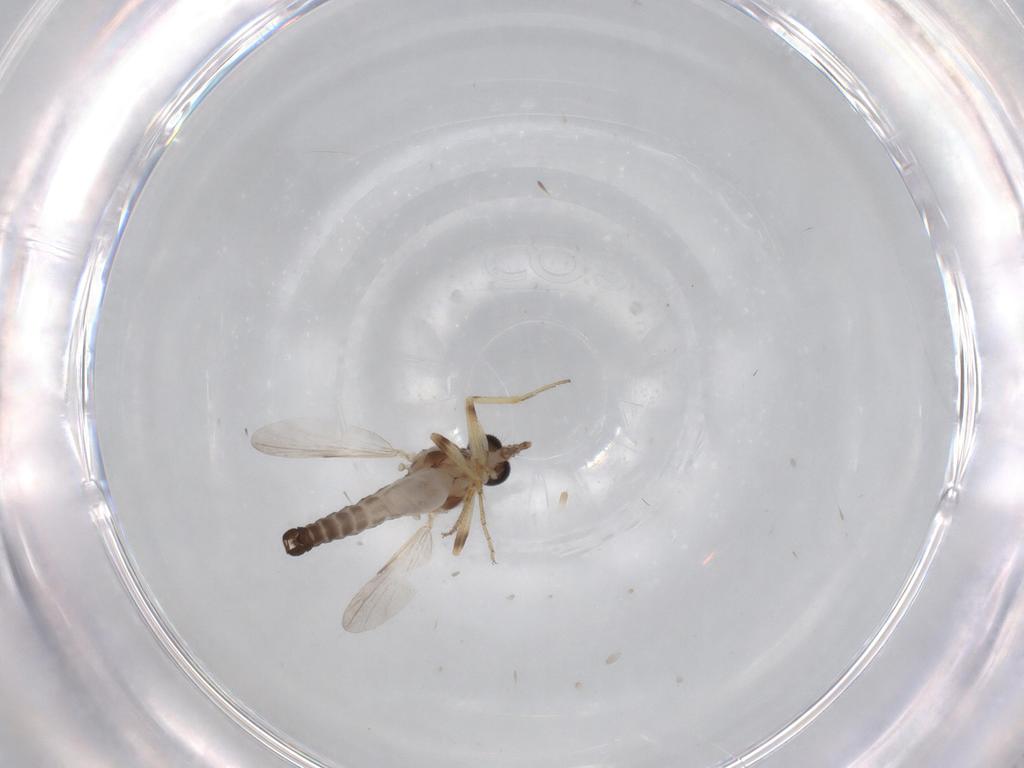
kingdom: Animalia
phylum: Arthropoda
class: Insecta
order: Diptera
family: Ceratopogonidae
